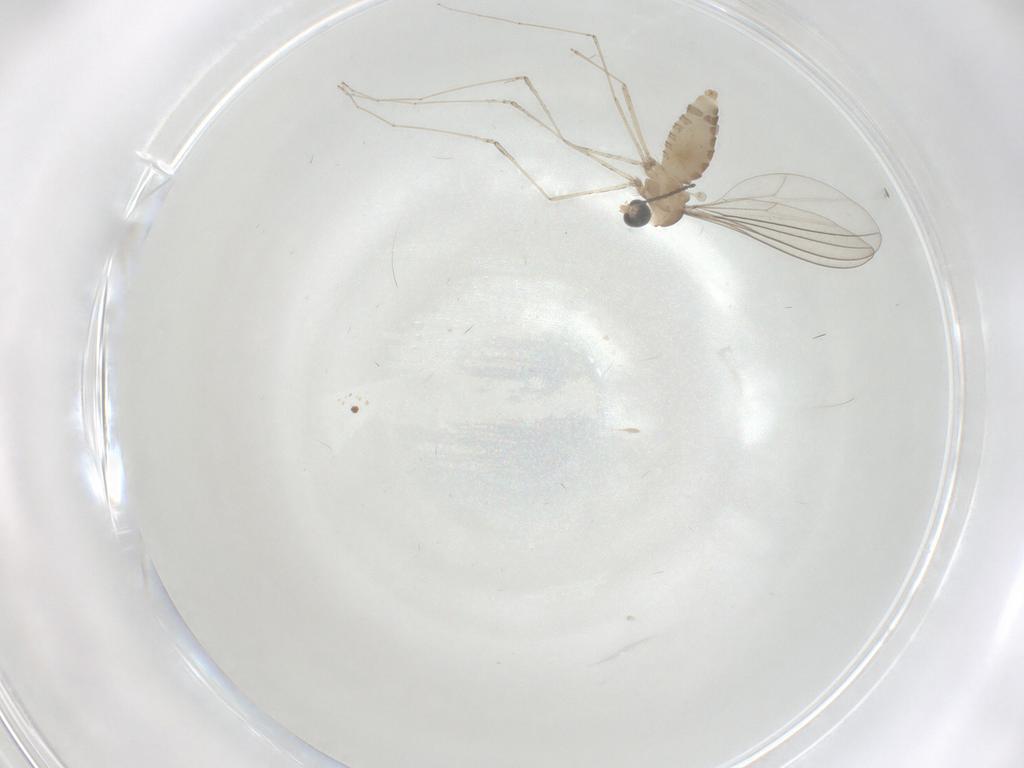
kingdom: Animalia
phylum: Arthropoda
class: Insecta
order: Diptera
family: Cecidomyiidae
